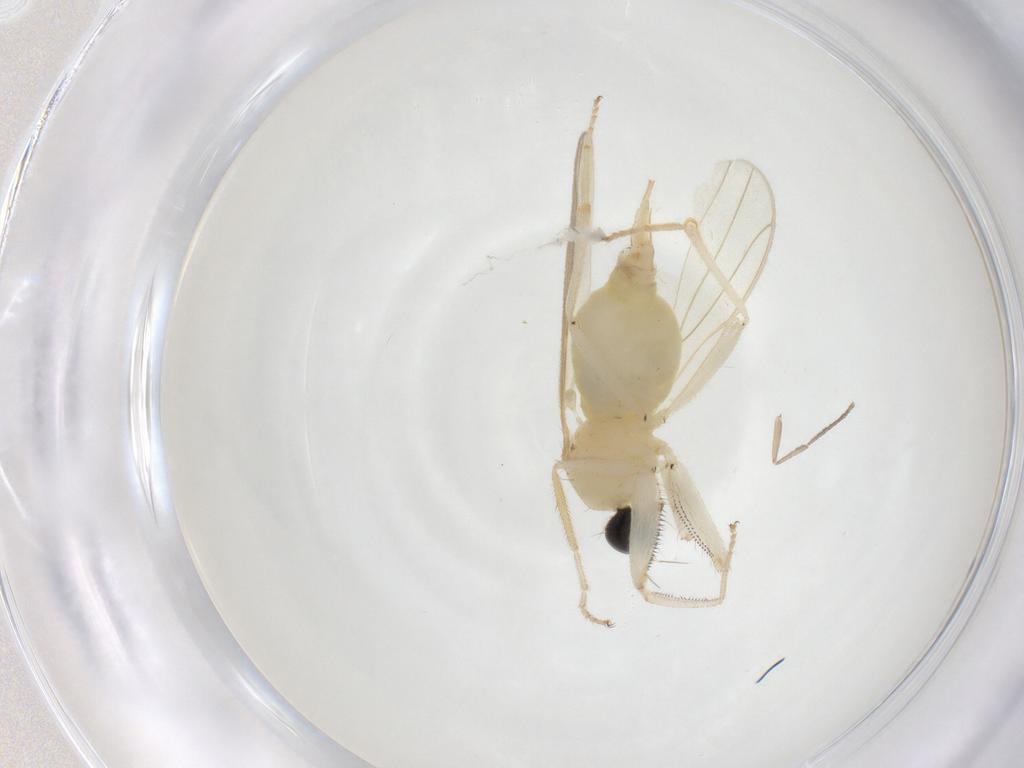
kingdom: Animalia
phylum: Arthropoda
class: Insecta
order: Diptera
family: Hybotidae
